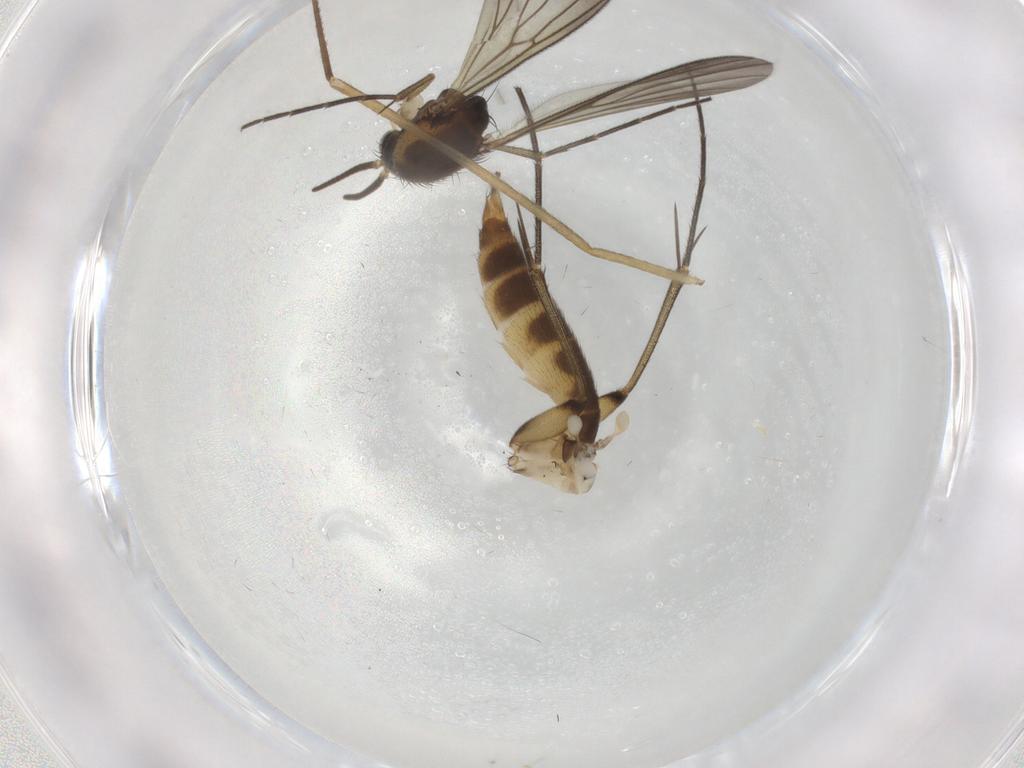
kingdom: Animalia
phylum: Arthropoda
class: Insecta
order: Diptera
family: Mycetophilidae
